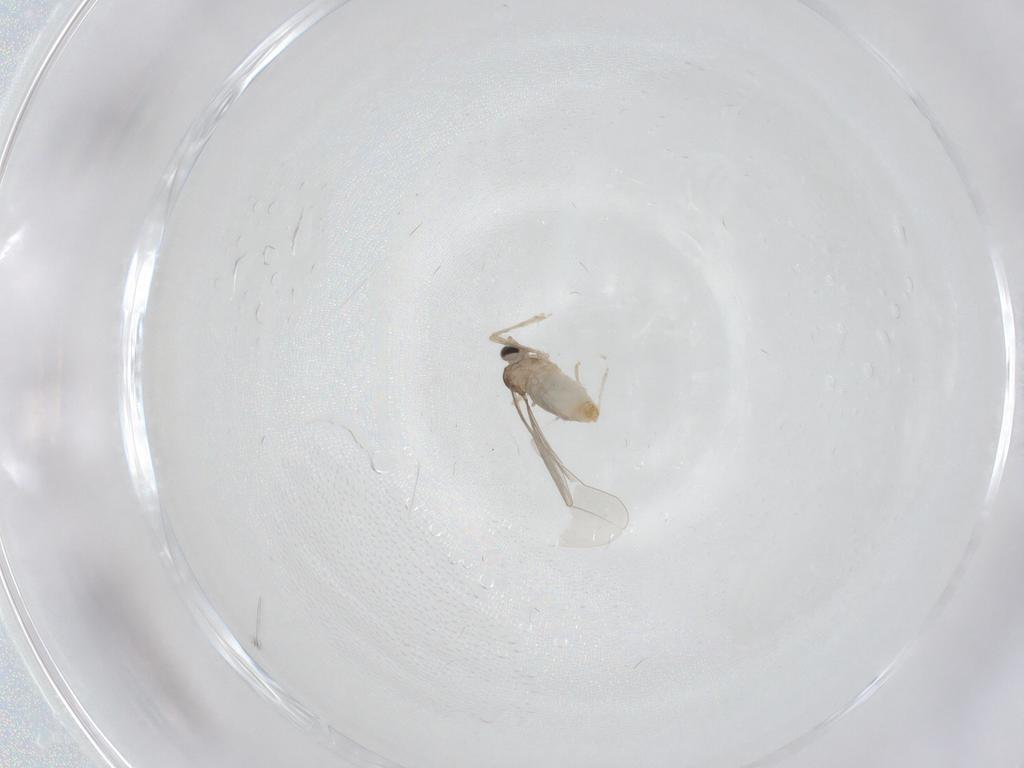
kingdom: Animalia
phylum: Arthropoda
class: Insecta
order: Diptera
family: Cecidomyiidae
